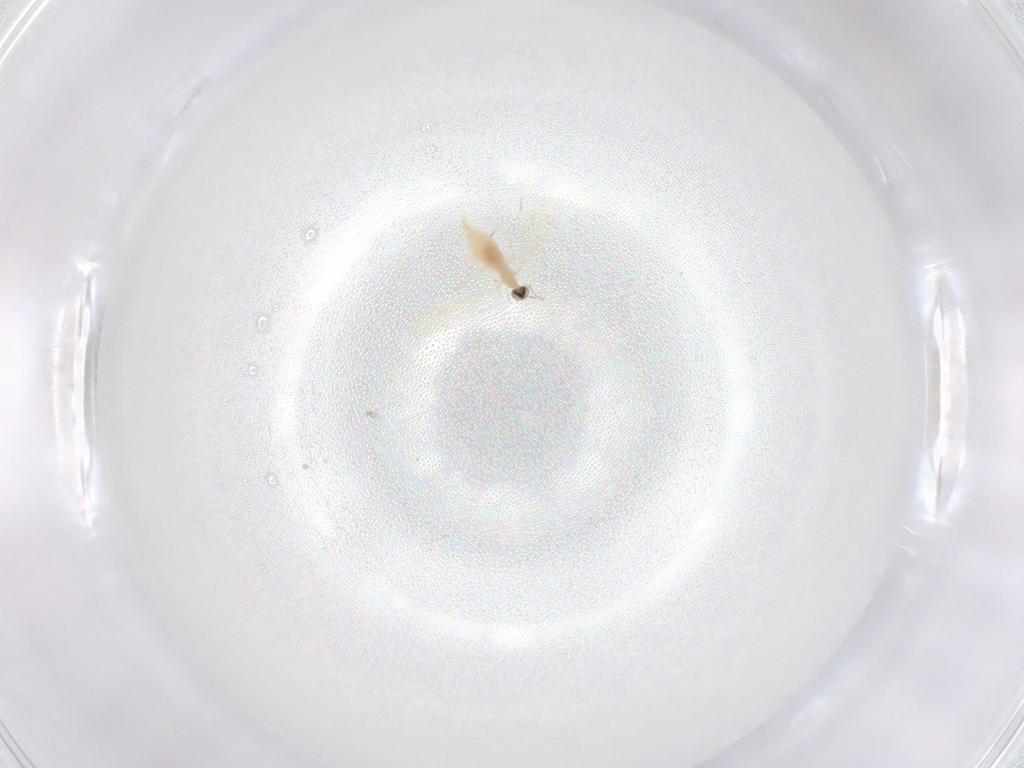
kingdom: Animalia
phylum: Arthropoda
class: Insecta
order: Diptera
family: Cecidomyiidae
